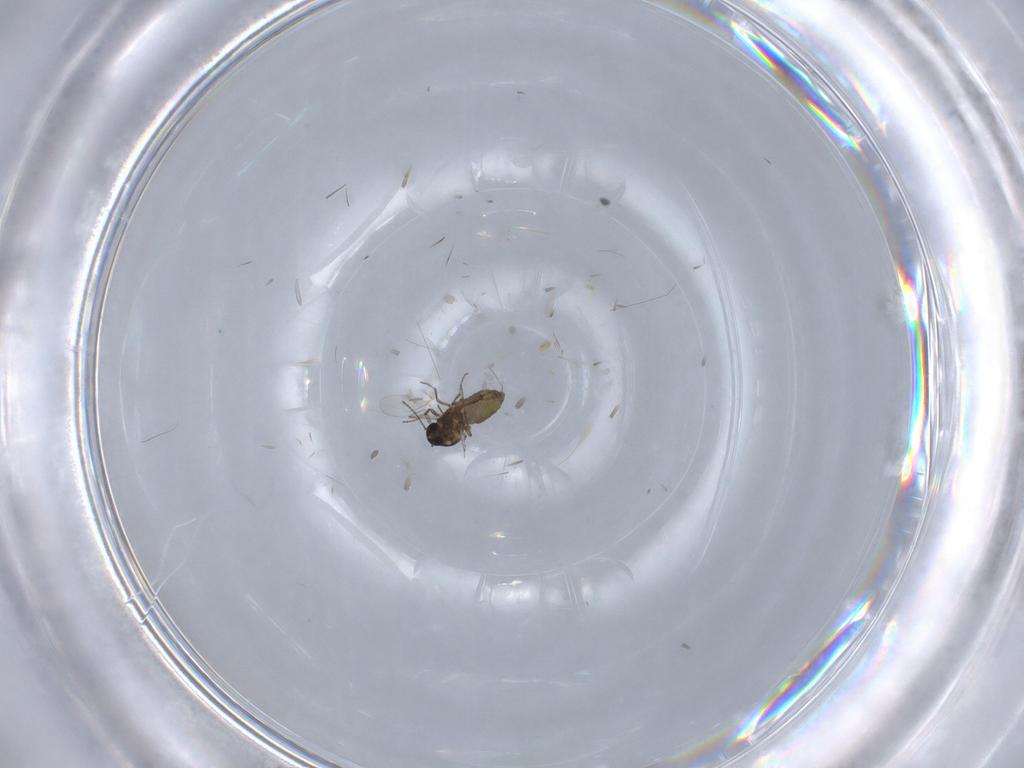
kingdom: Animalia
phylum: Arthropoda
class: Insecta
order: Diptera
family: Ceratopogonidae
